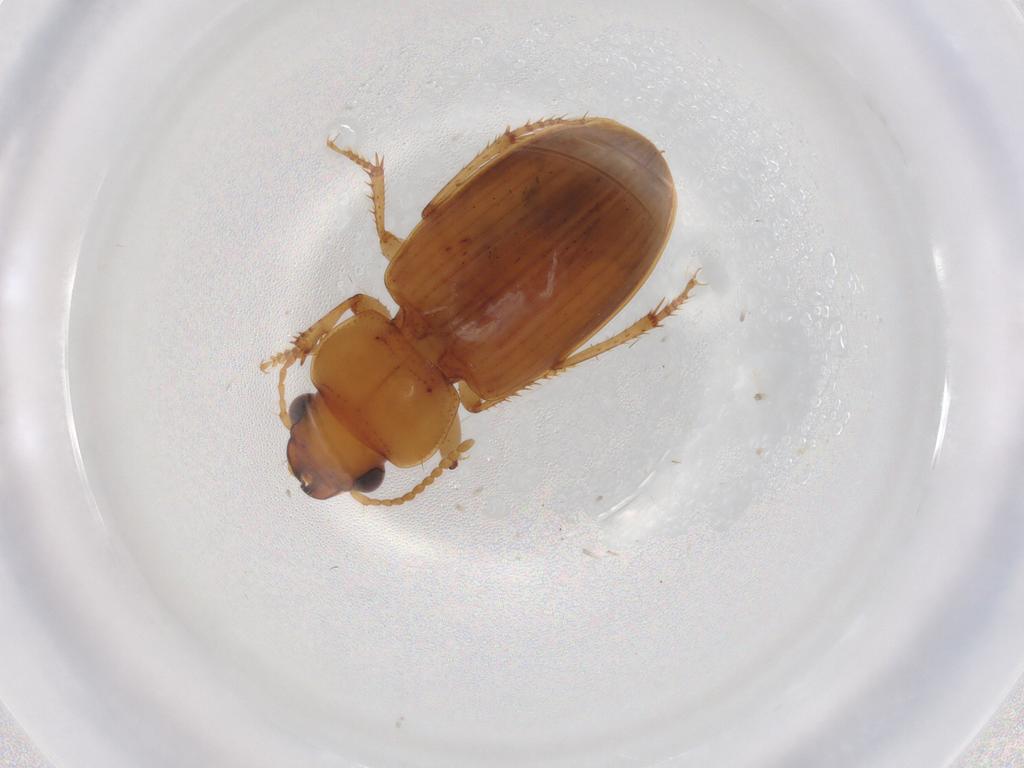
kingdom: Animalia
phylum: Arthropoda
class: Insecta
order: Coleoptera
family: Carabidae
